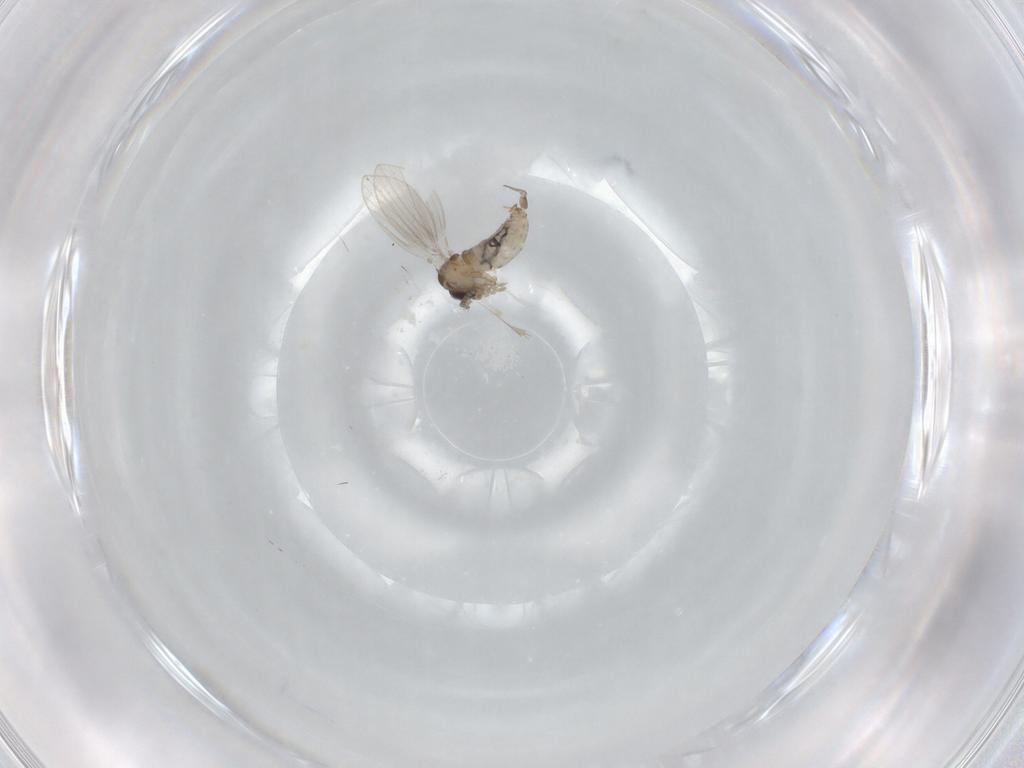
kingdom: Animalia
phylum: Arthropoda
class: Insecta
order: Diptera
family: Psychodidae
